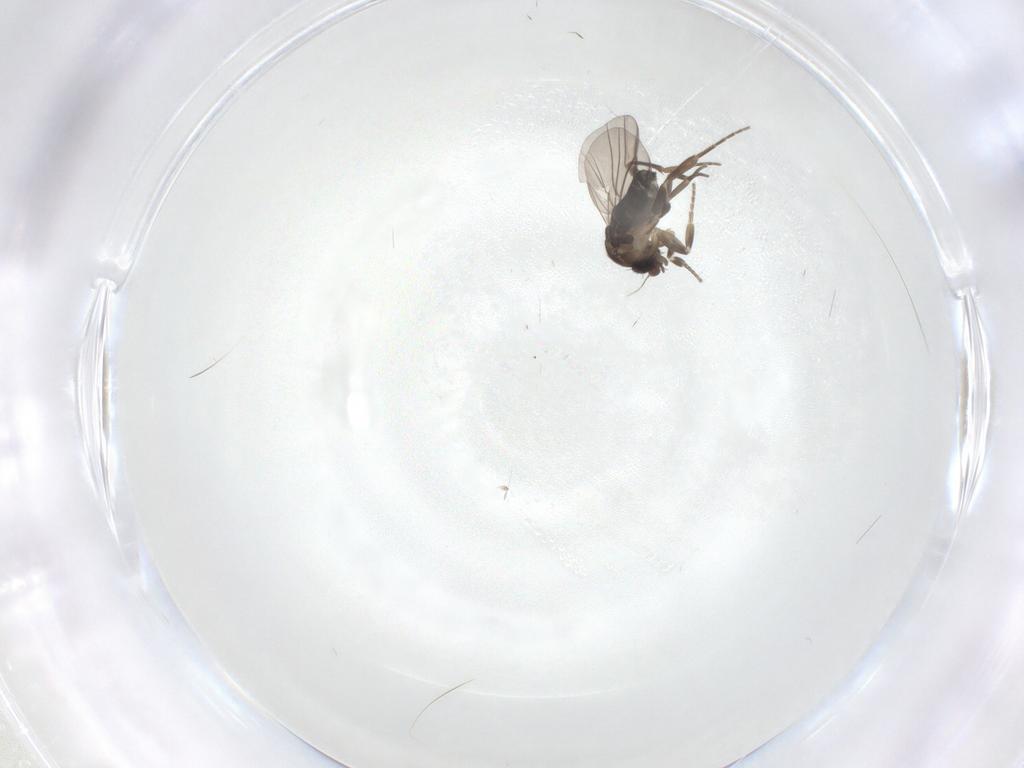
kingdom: Animalia
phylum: Arthropoda
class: Insecta
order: Diptera
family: Phoridae
